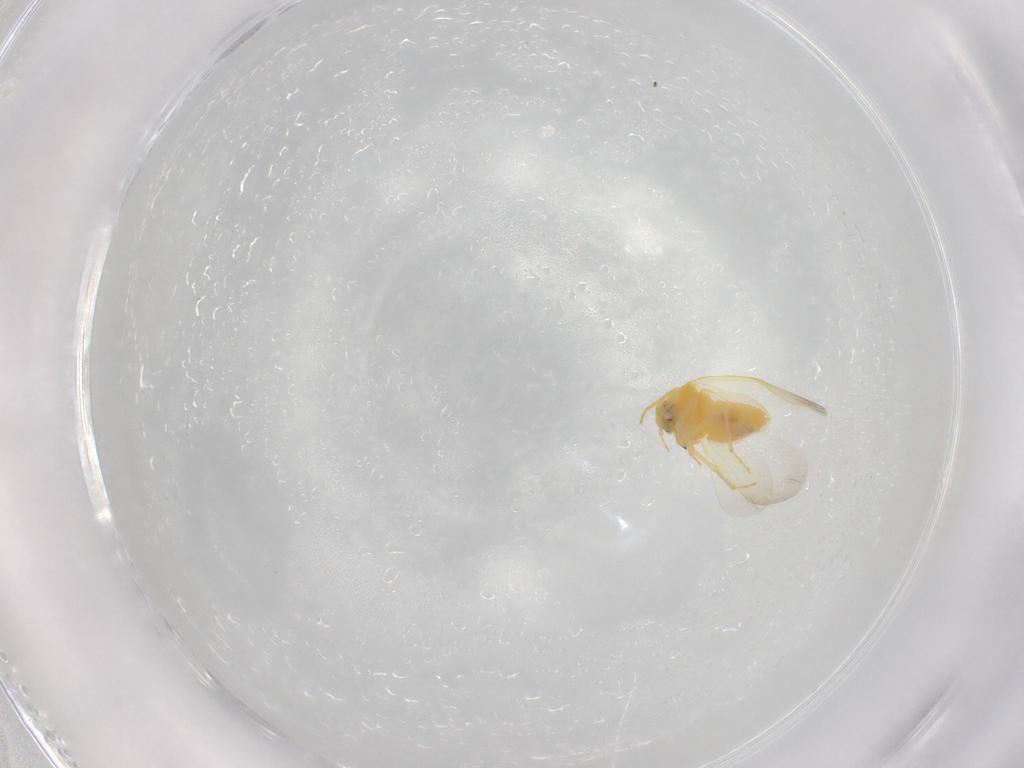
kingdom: Animalia
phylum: Arthropoda
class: Insecta
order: Hemiptera
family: Aleyrodidae
